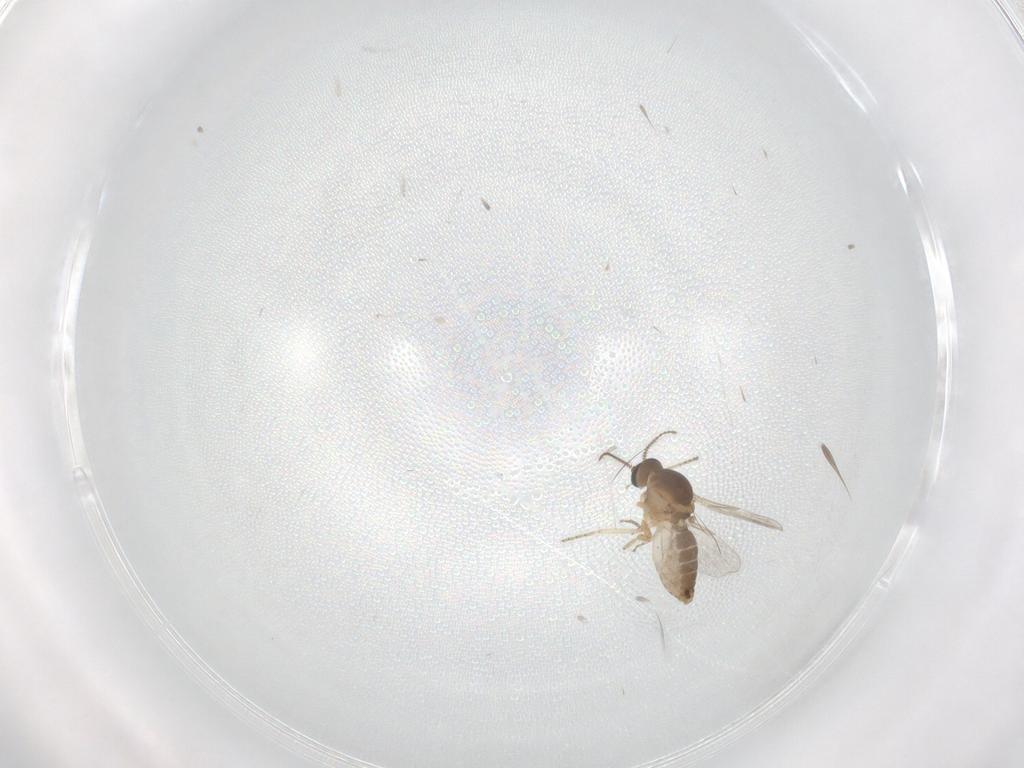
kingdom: Animalia
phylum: Arthropoda
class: Insecta
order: Diptera
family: Ceratopogonidae
